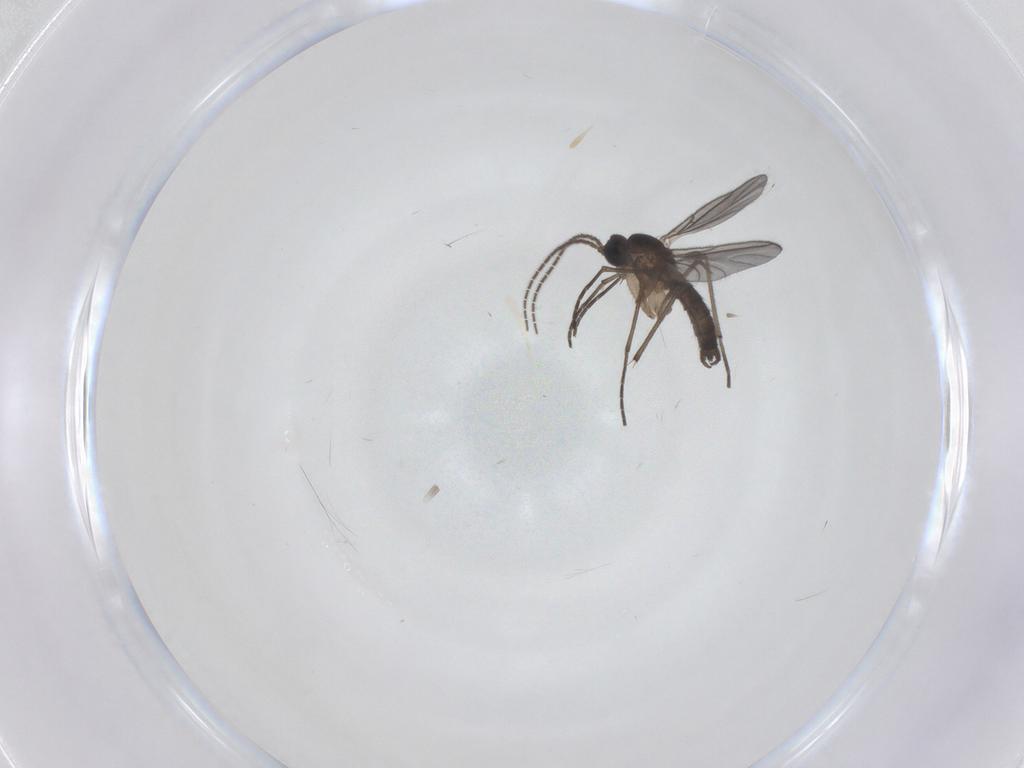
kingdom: Animalia
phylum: Arthropoda
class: Insecta
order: Diptera
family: Sciaridae
